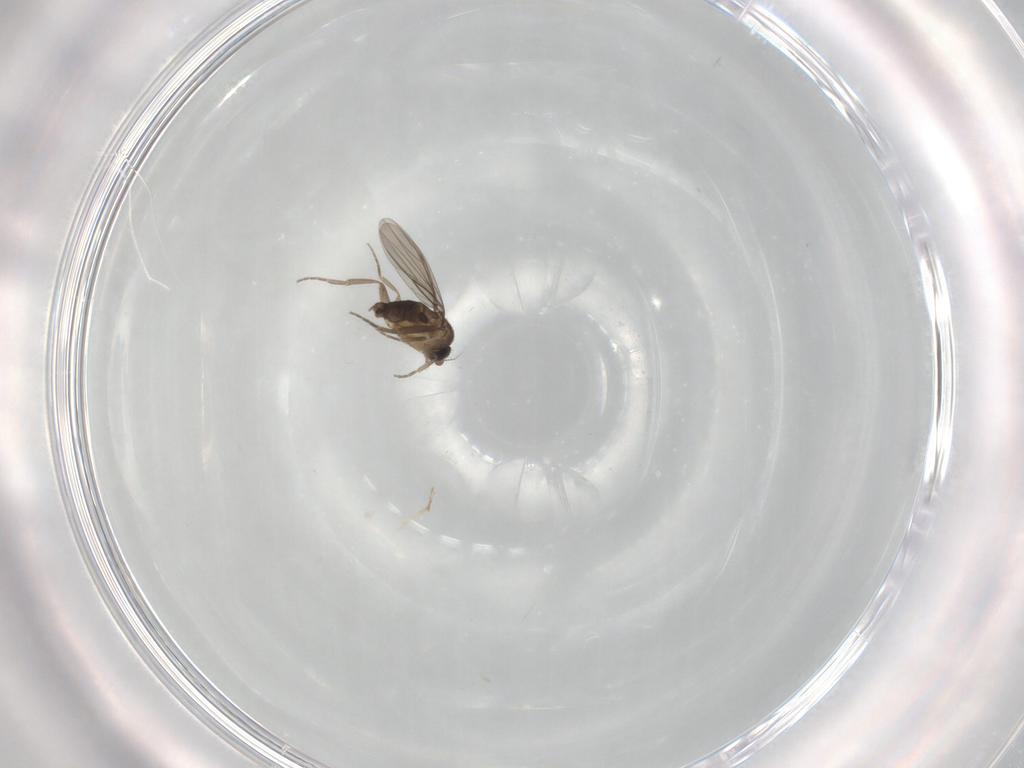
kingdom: Animalia
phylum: Arthropoda
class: Insecta
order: Diptera
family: Phoridae
